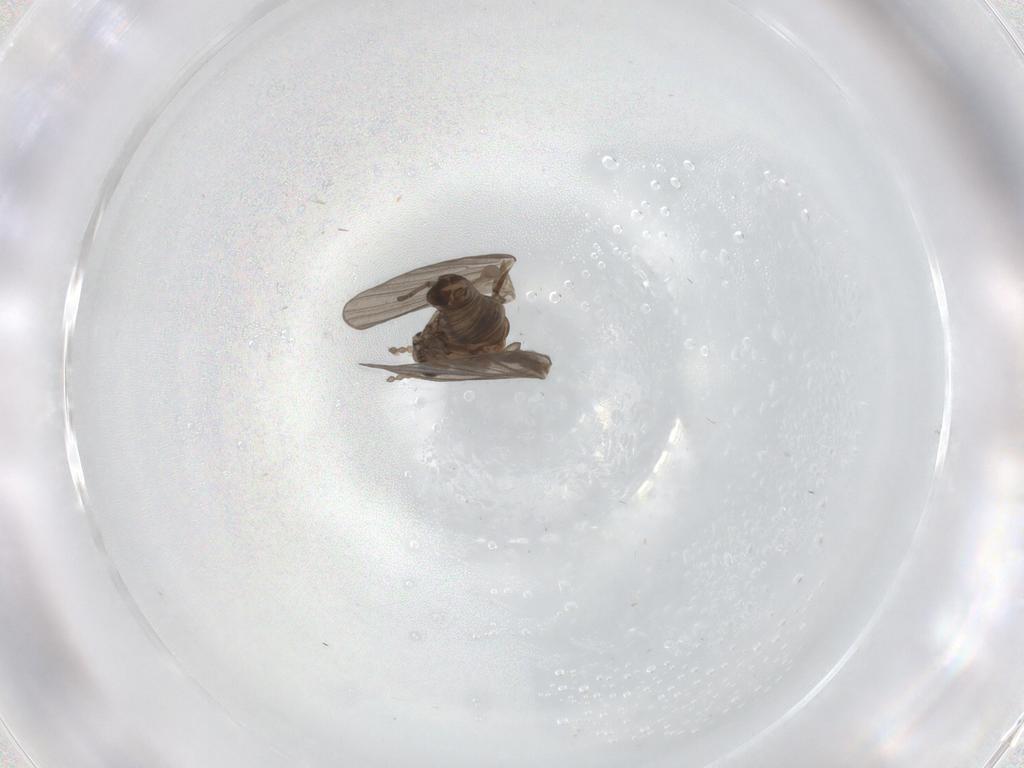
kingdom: Animalia
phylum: Arthropoda
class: Insecta
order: Diptera
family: Psychodidae
